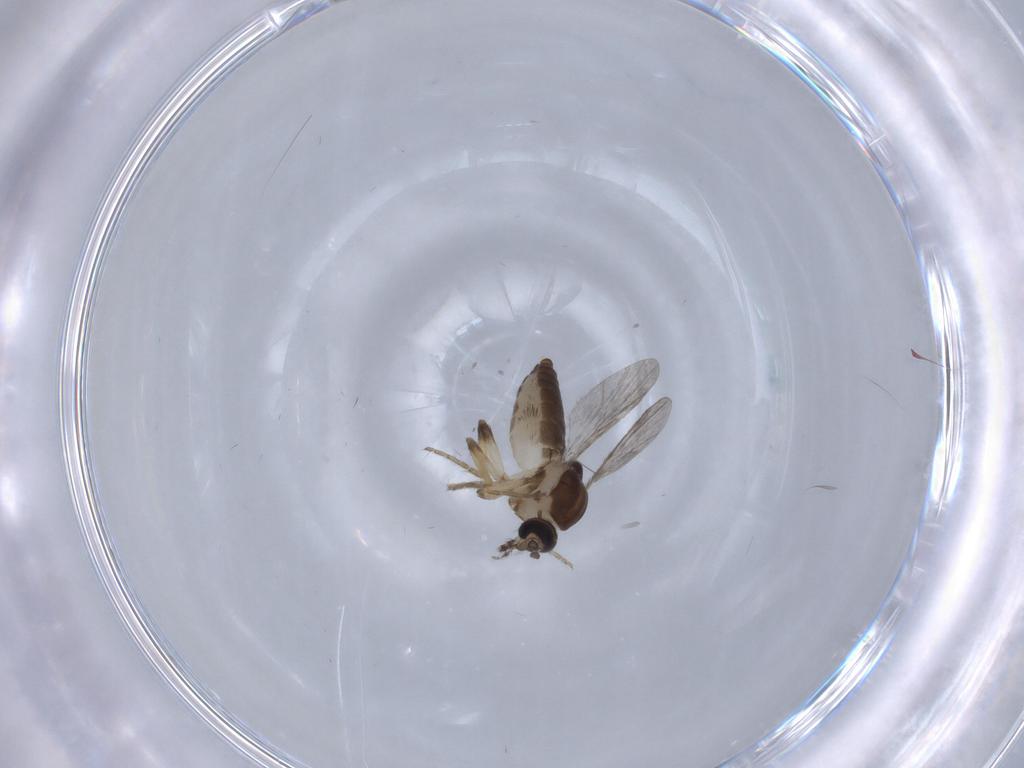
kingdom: Animalia
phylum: Arthropoda
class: Insecta
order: Diptera
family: Ceratopogonidae
